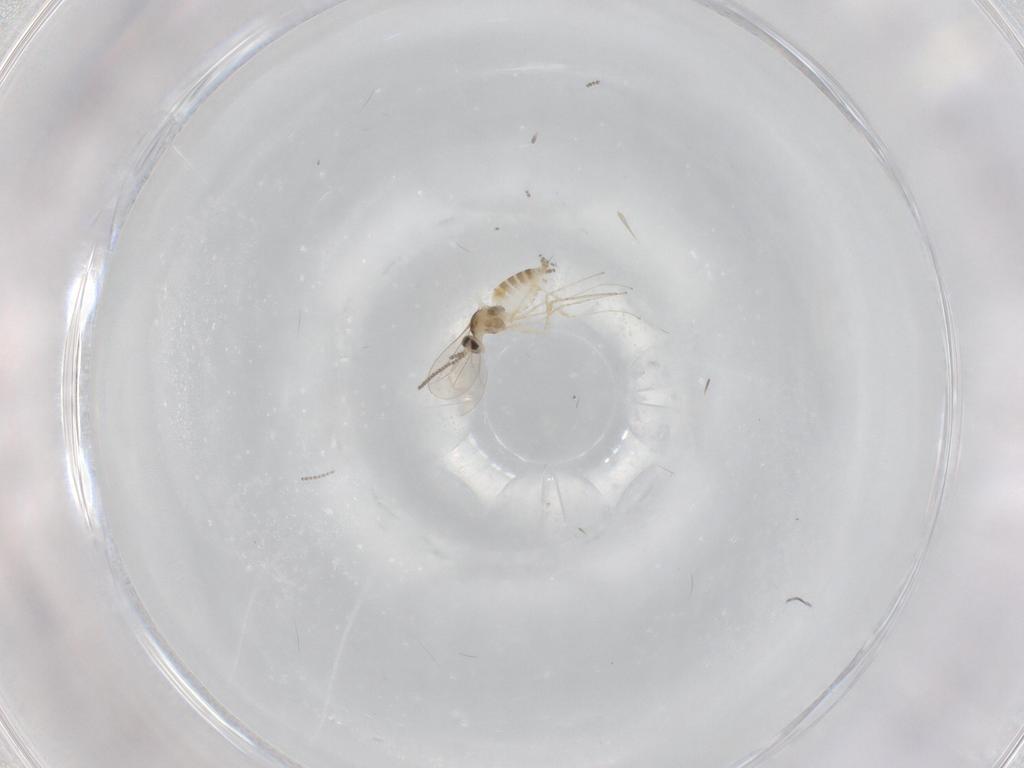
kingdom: Animalia
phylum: Arthropoda
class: Insecta
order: Diptera
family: Cecidomyiidae
